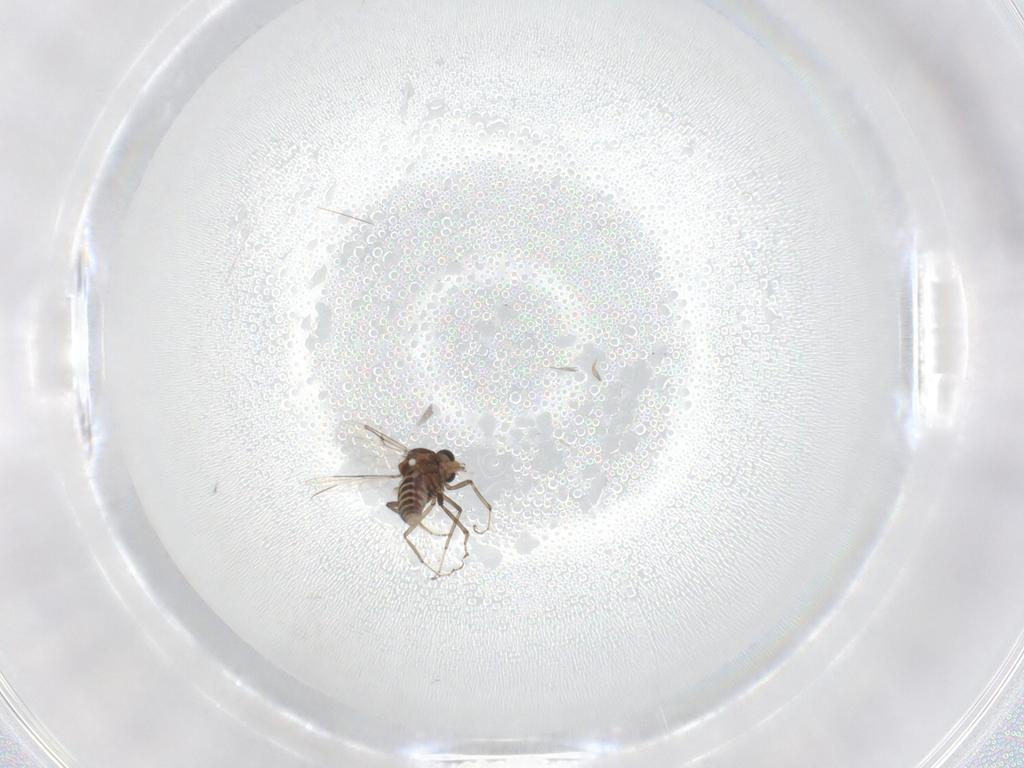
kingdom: Animalia
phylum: Arthropoda
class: Insecta
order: Diptera
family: Ceratopogonidae
